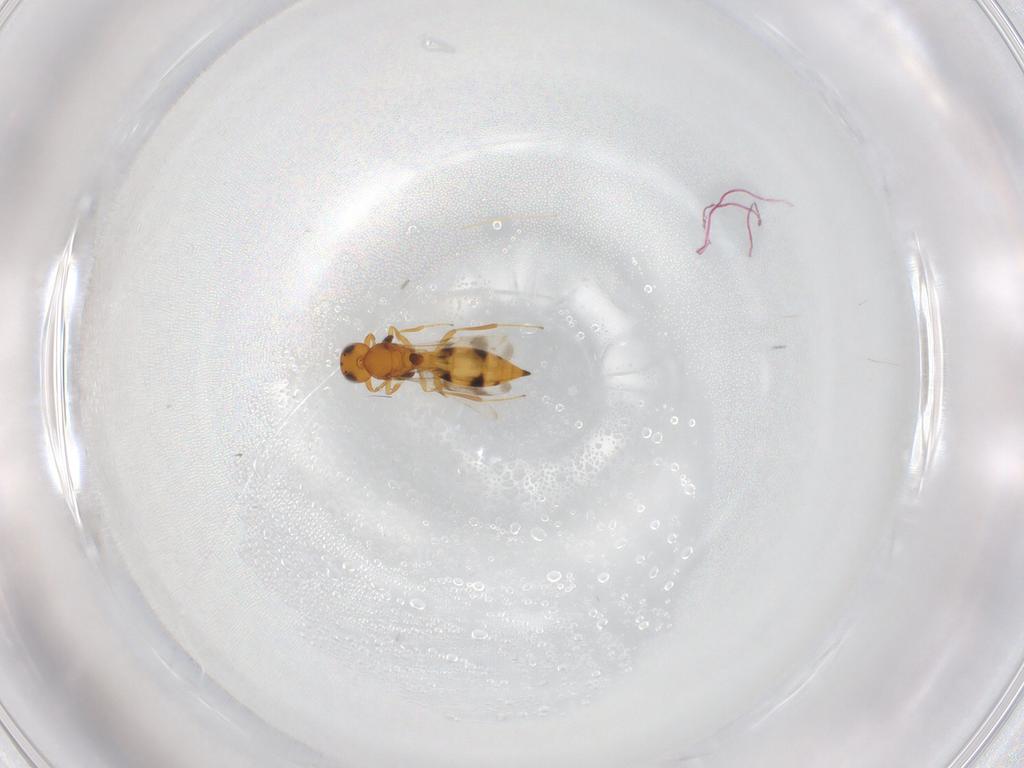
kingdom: Animalia
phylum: Arthropoda
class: Insecta
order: Hymenoptera
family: Scelionidae
